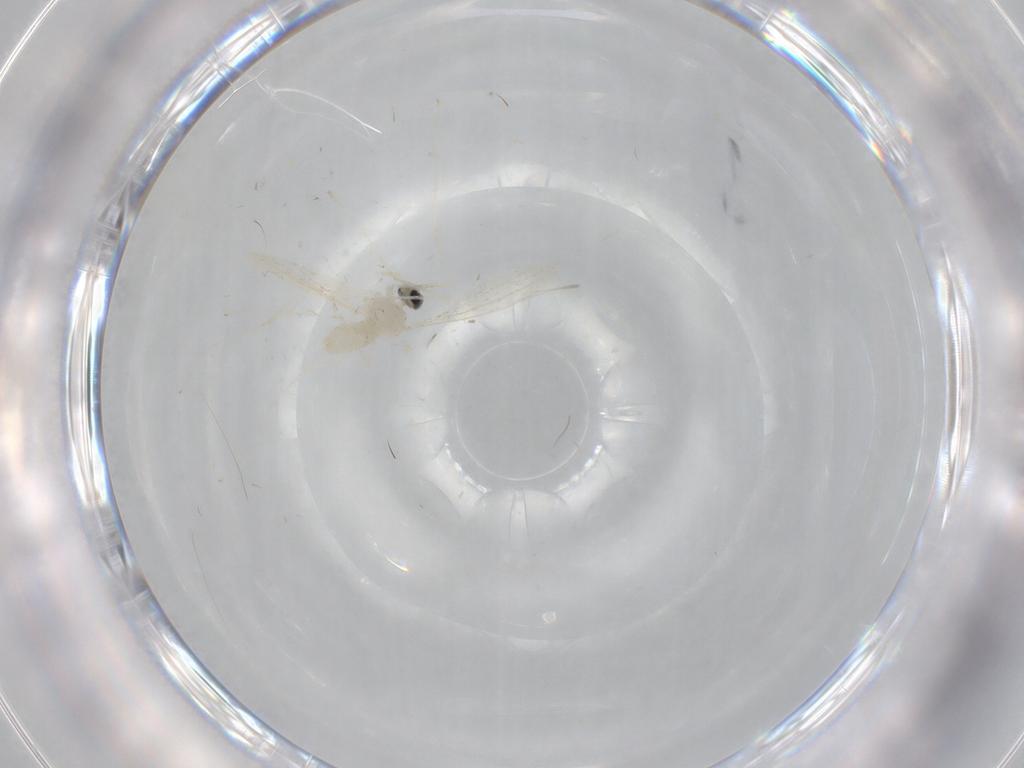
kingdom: Animalia
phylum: Arthropoda
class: Insecta
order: Diptera
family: Cecidomyiidae
